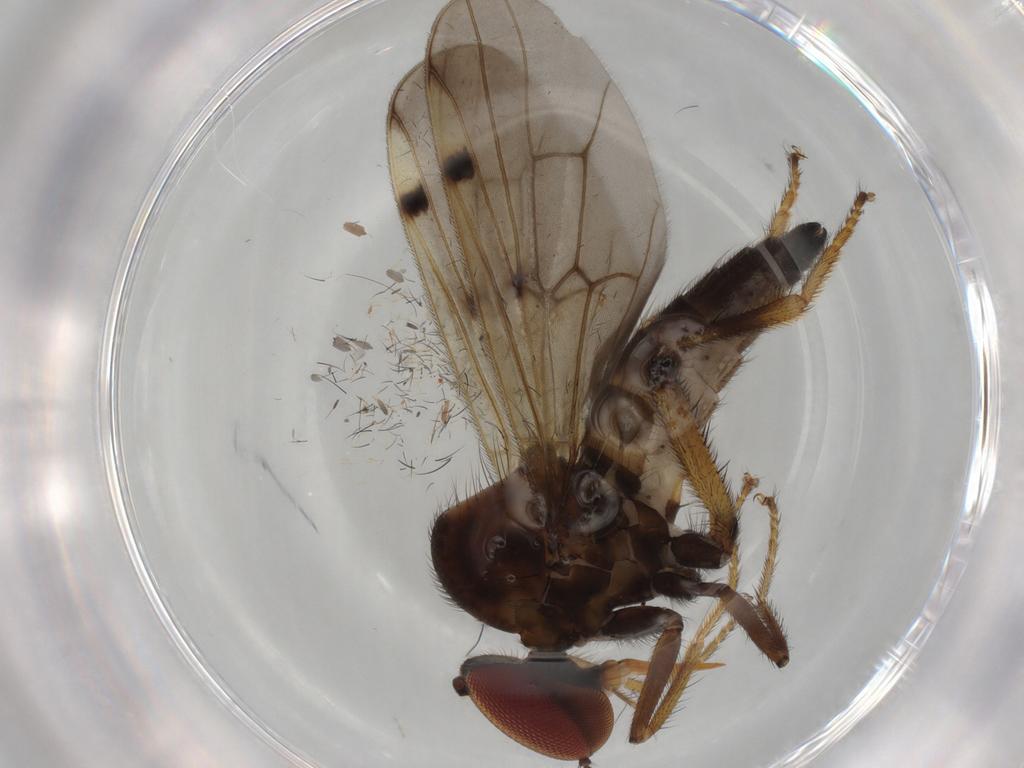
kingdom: Animalia
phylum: Arthropoda
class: Insecta
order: Diptera
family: Hybotidae
